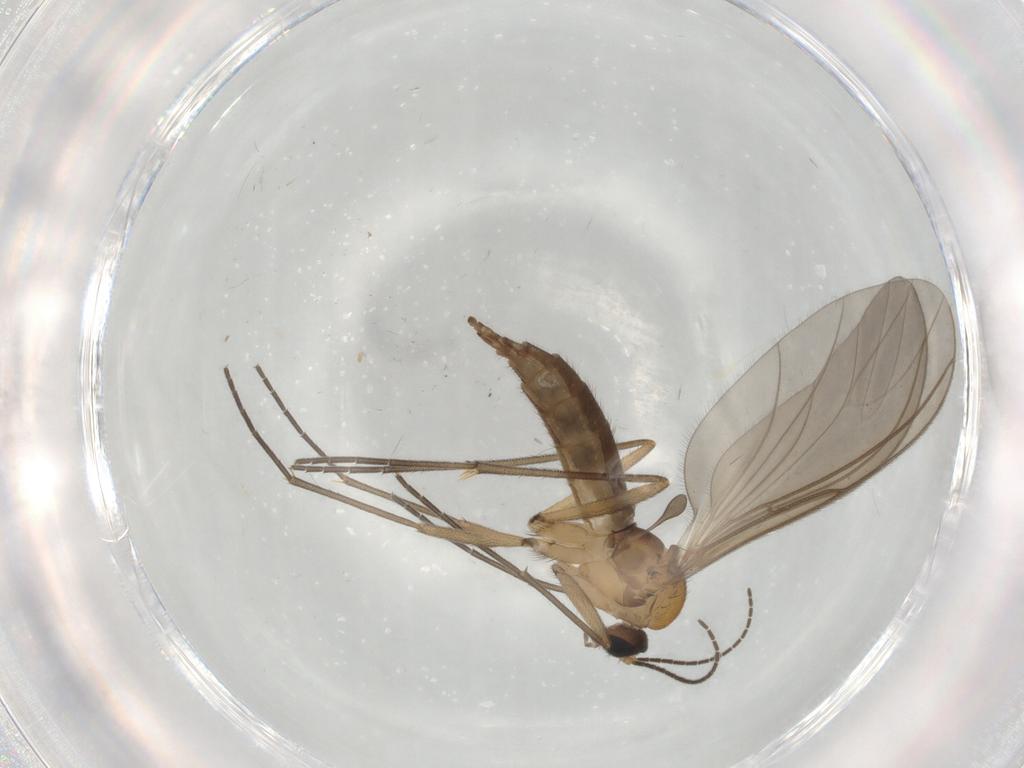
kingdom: Animalia
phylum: Arthropoda
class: Insecta
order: Diptera
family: Sciaridae
